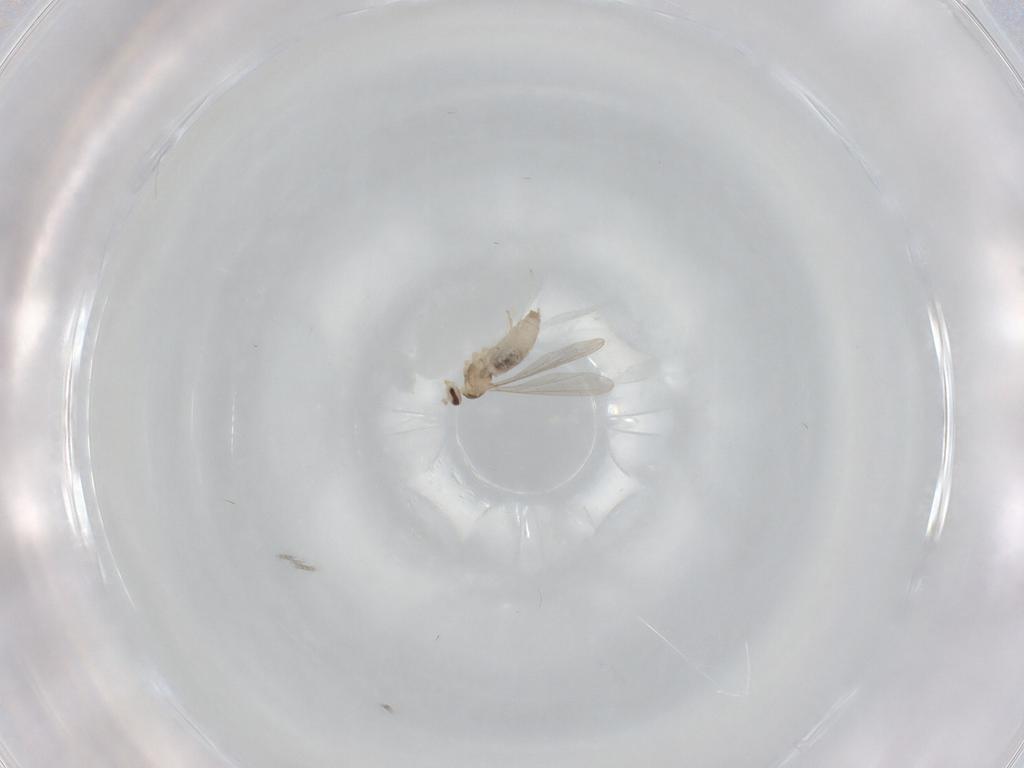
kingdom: Animalia
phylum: Arthropoda
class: Insecta
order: Diptera
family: Cecidomyiidae
